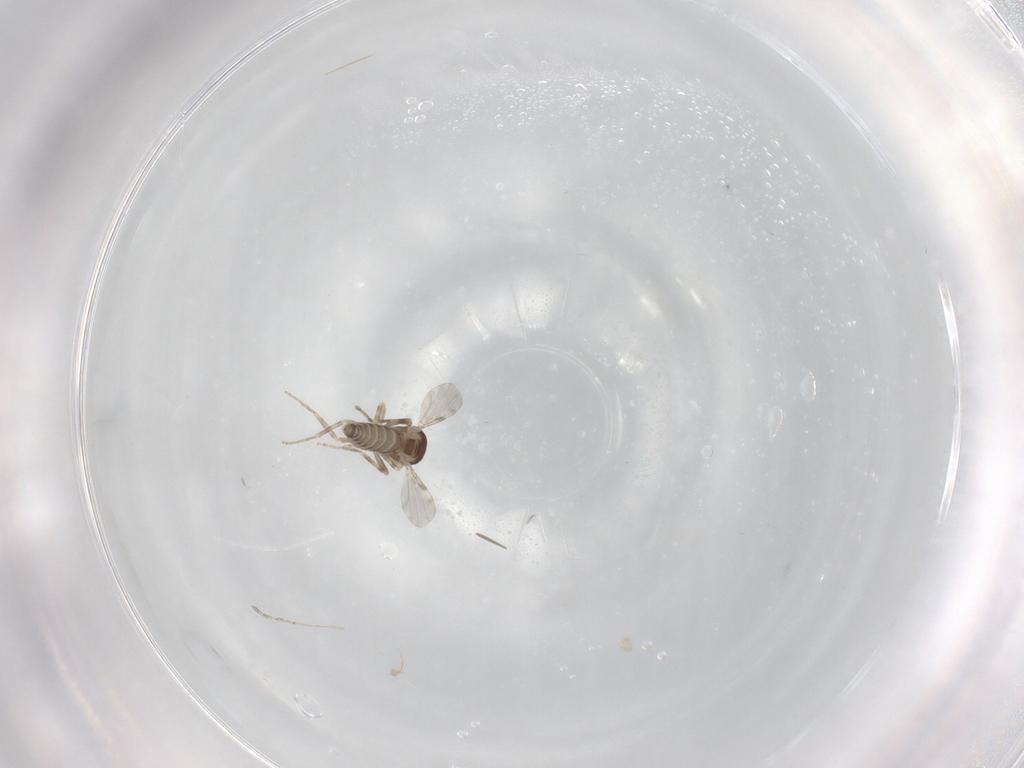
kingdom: Animalia
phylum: Arthropoda
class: Insecta
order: Diptera
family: Ceratopogonidae
